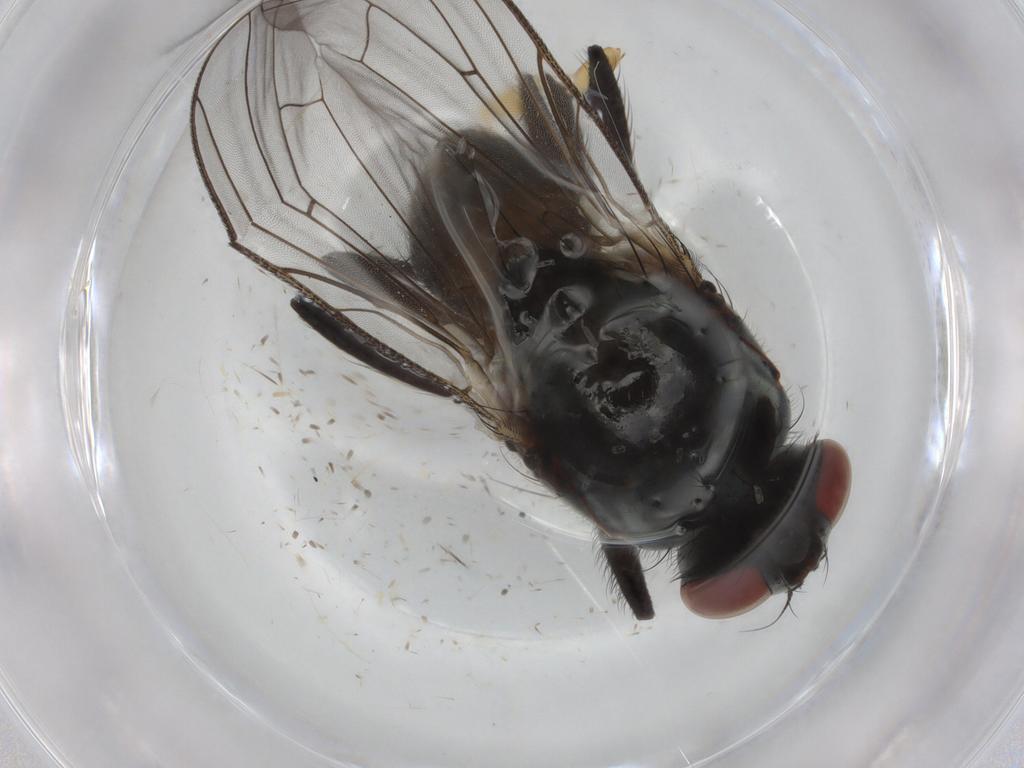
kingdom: Animalia
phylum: Arthropoda
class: Insecta
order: Diptera
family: Anthomyiidae
